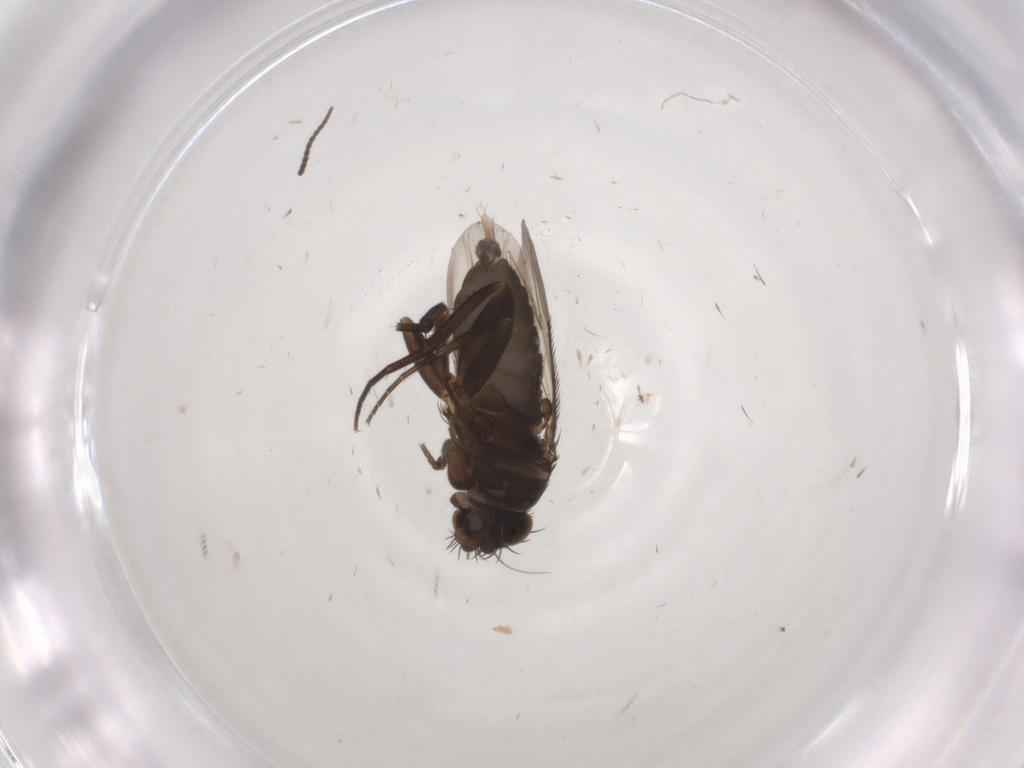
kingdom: Animalia
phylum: Arthropoda
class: Insecta
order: Diptera
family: Phoridae
